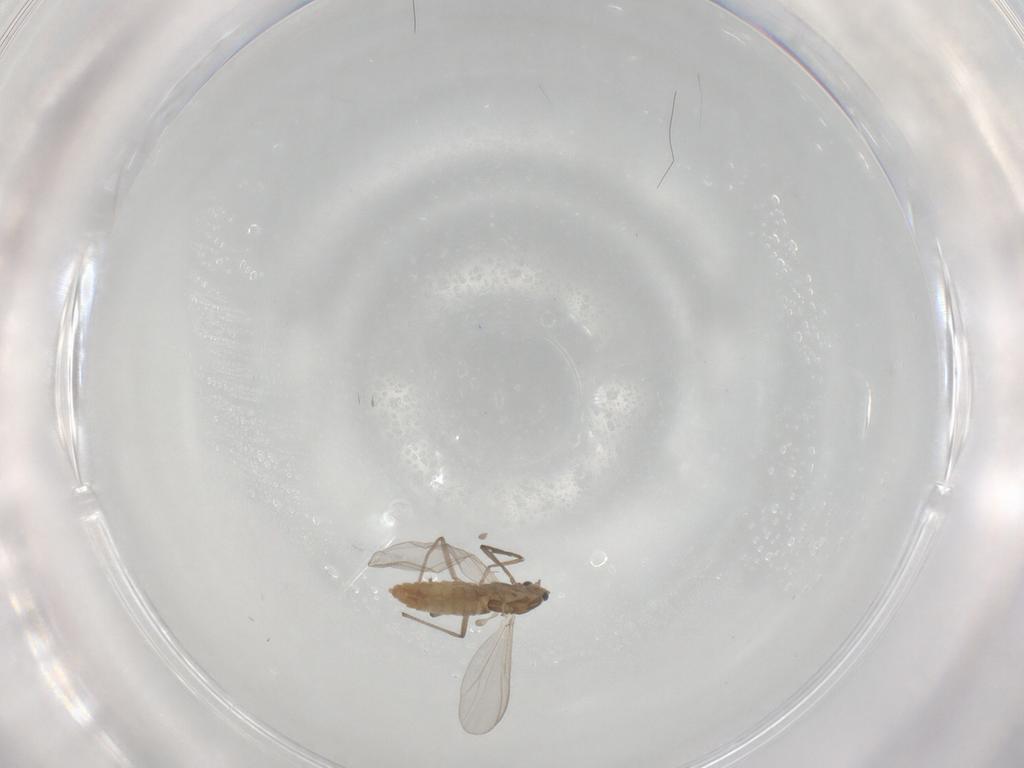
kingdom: Animalia
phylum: Arthropoda
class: Insecta
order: Diptera
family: Chironomidae
